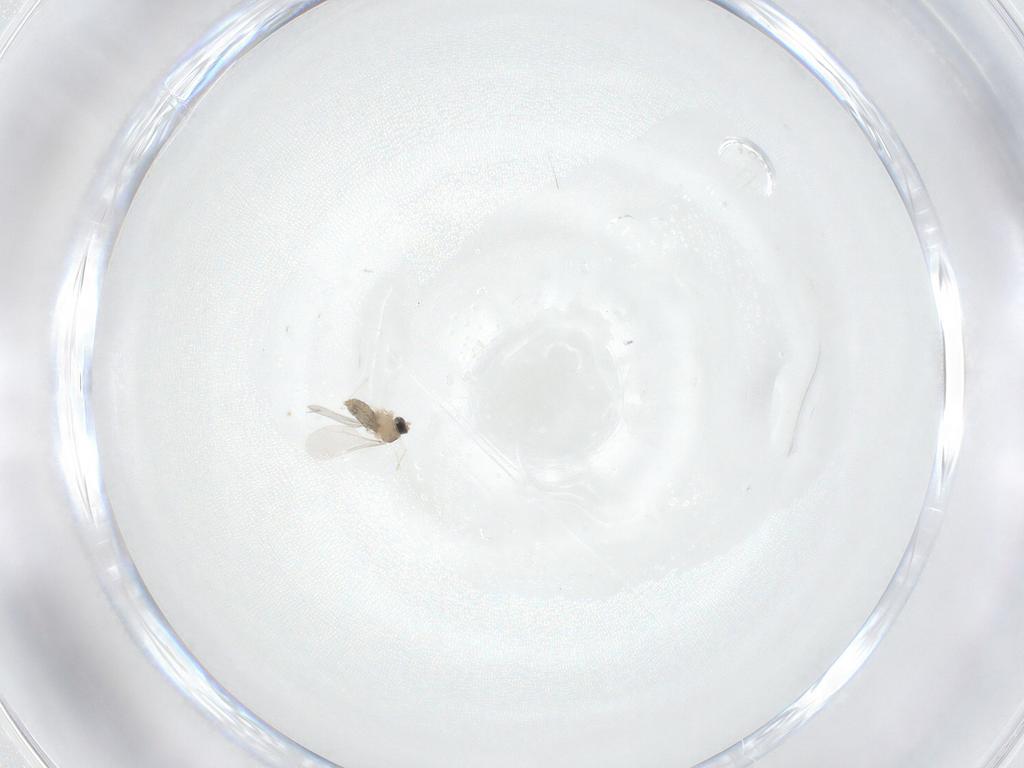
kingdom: Animalia
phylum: Arthropoda
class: Insecta
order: Diptera
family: Cecidomyiidae
